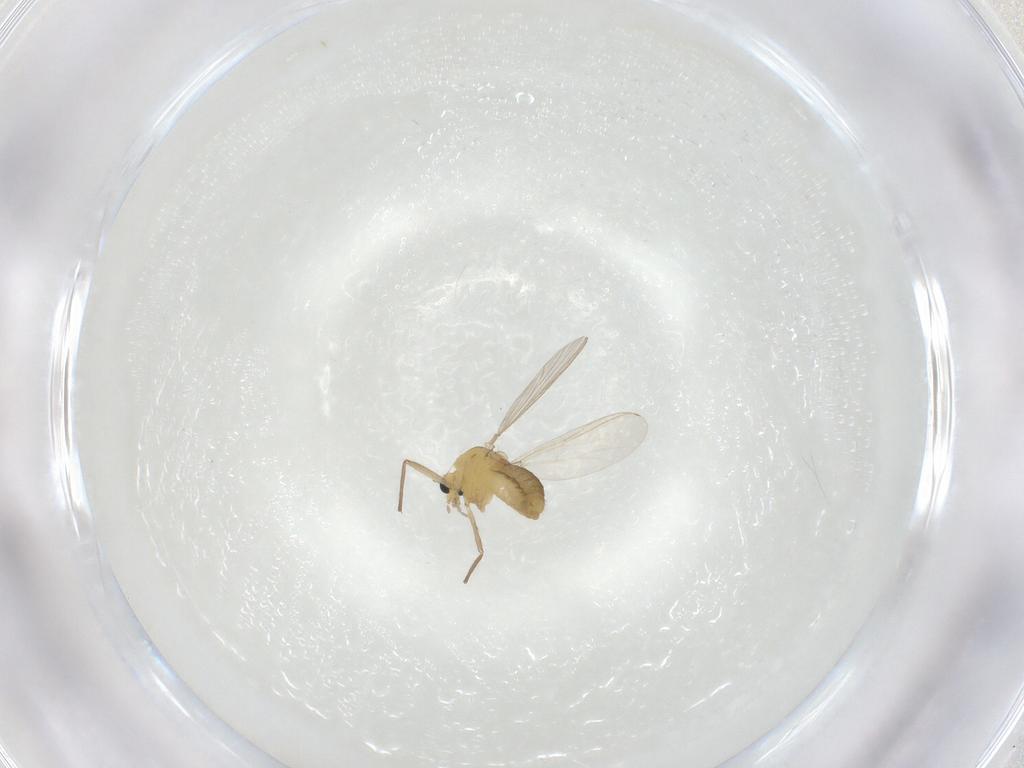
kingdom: Animalia
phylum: Arthropoda
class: Insecta
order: Diptera
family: Chironomidae
